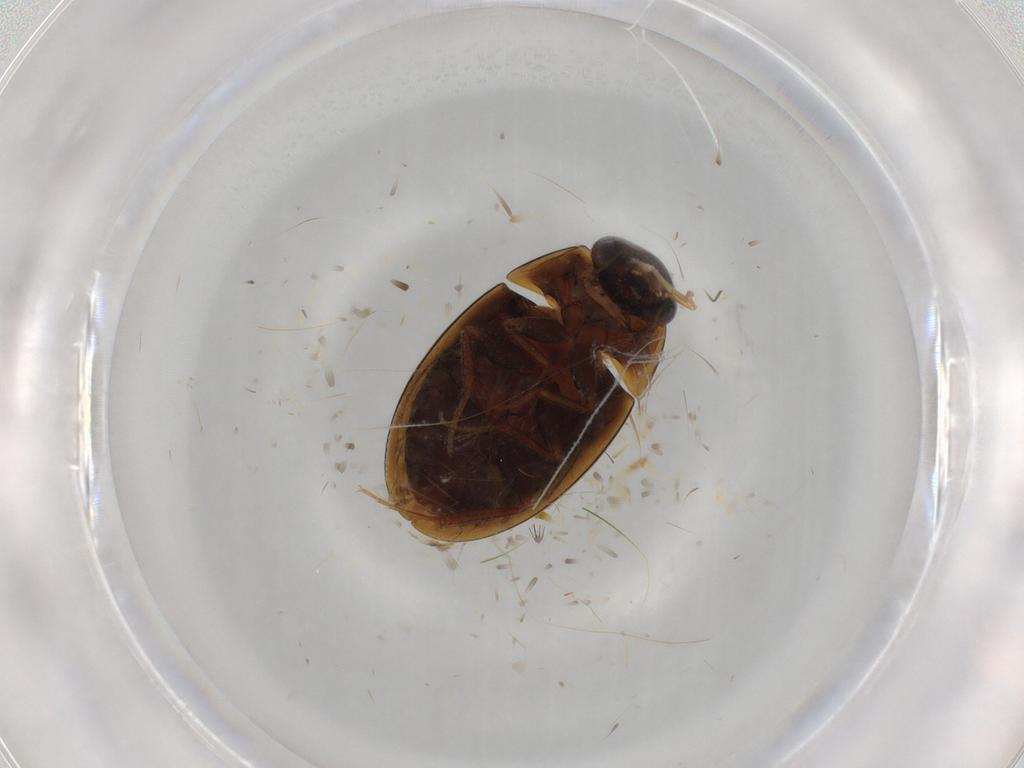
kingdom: Animalia
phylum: Arthropoda
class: Insecta
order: Coleoptera
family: Hydrophilidae
